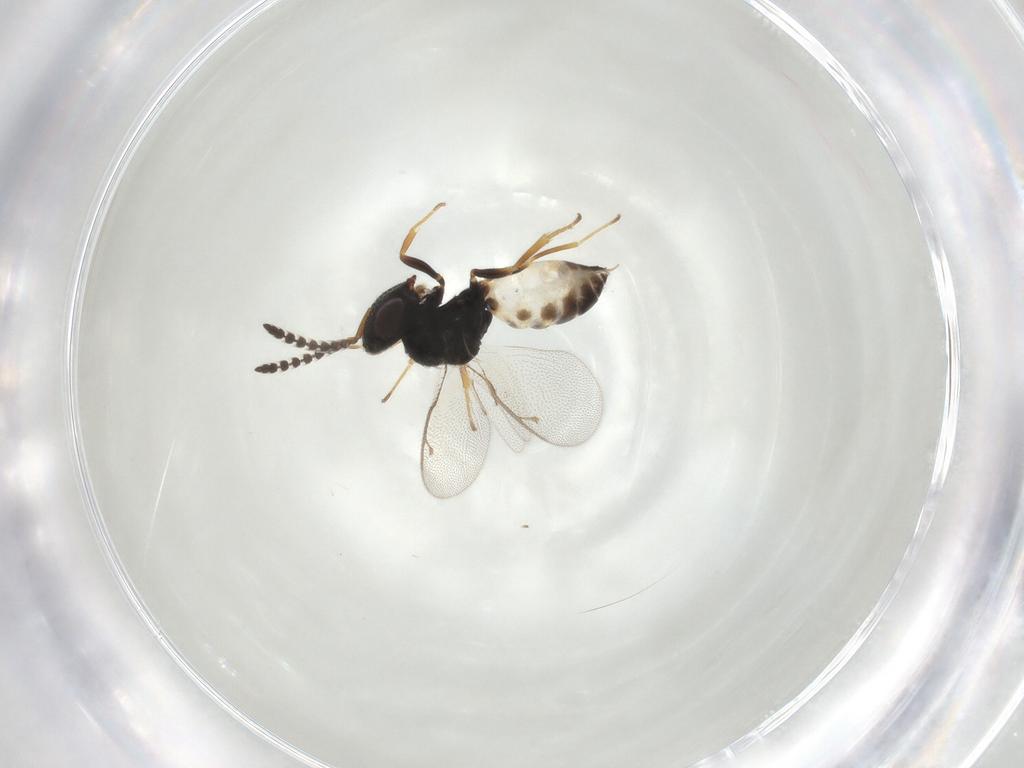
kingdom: Animalia
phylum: Arthropoda
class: Insecta
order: Hymenoptera
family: Pteromalidae
